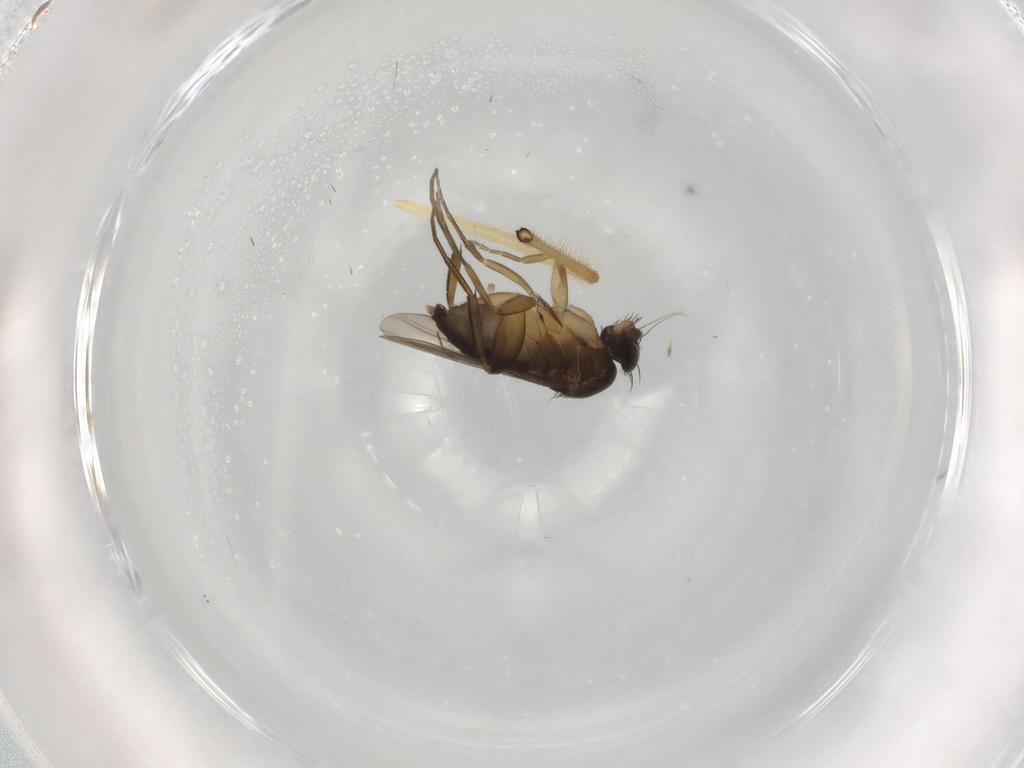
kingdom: Animalia
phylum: Arthropoda
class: Insecta
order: Diptera
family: Phoridae
